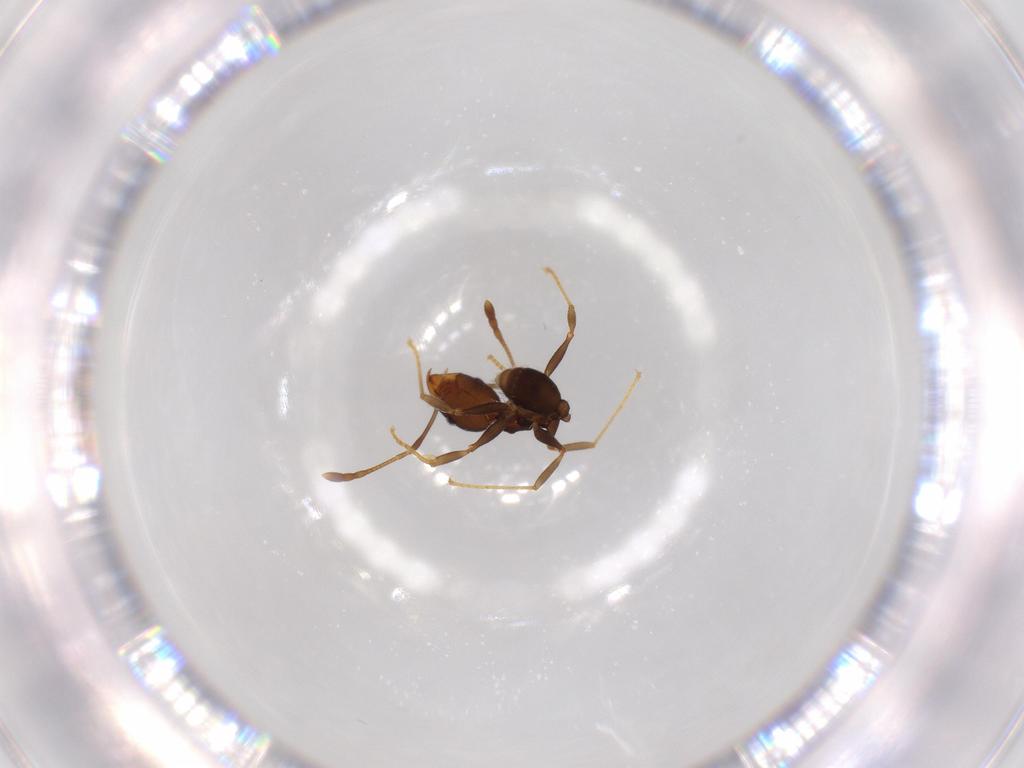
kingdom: Animalia
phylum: Arthropoda
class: Insecta
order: Hymenoptera
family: Formicidae
